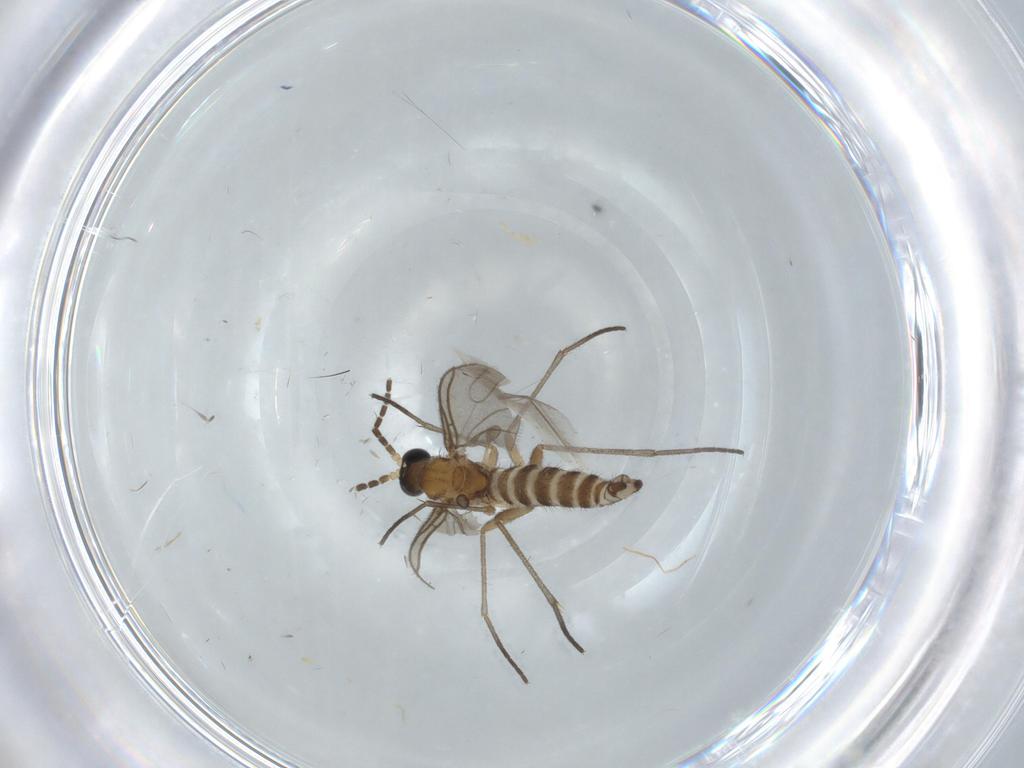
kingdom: Animalia
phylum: Arthropoda
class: Insecta
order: Diptera
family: Sciaridae
